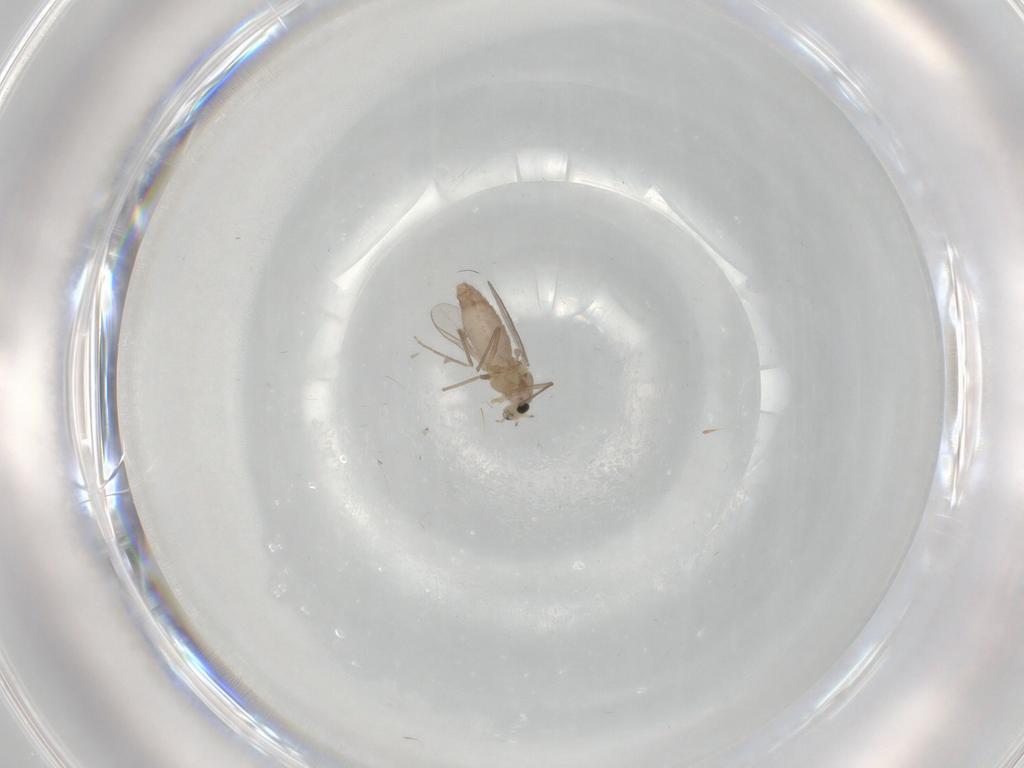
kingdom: Animalia
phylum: Arthropoda
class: Insecta
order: Diptera
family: Chironomidae
